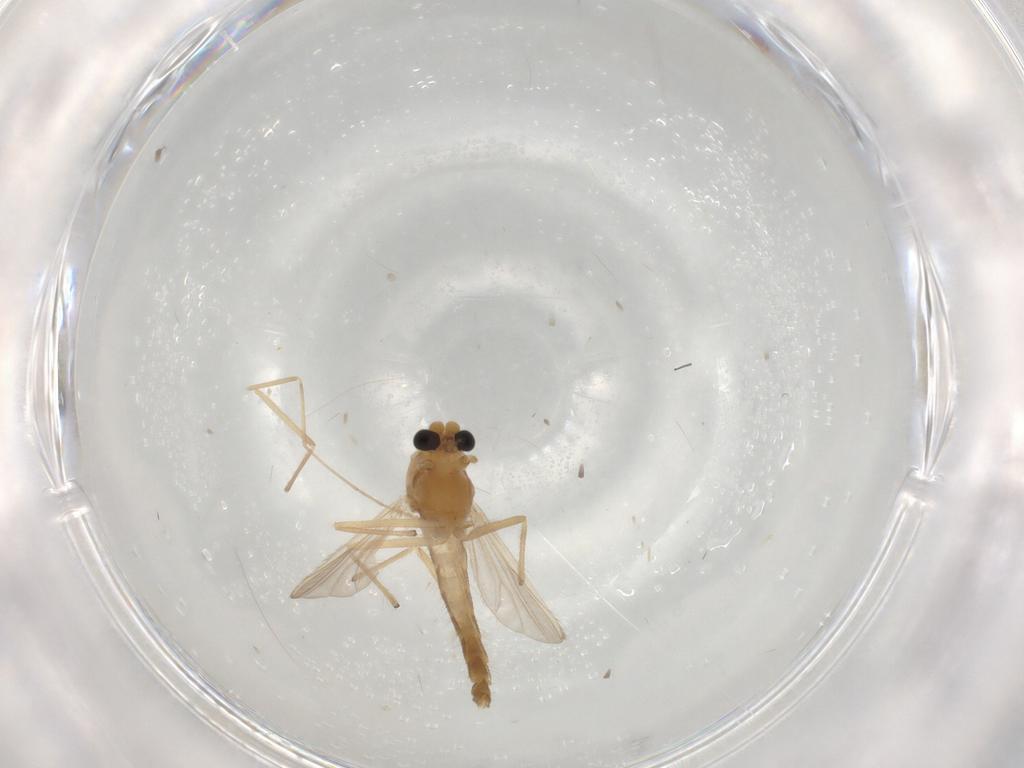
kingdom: Animalia
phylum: Arthropoda
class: Insecta
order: Diptera
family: Chironomidae
